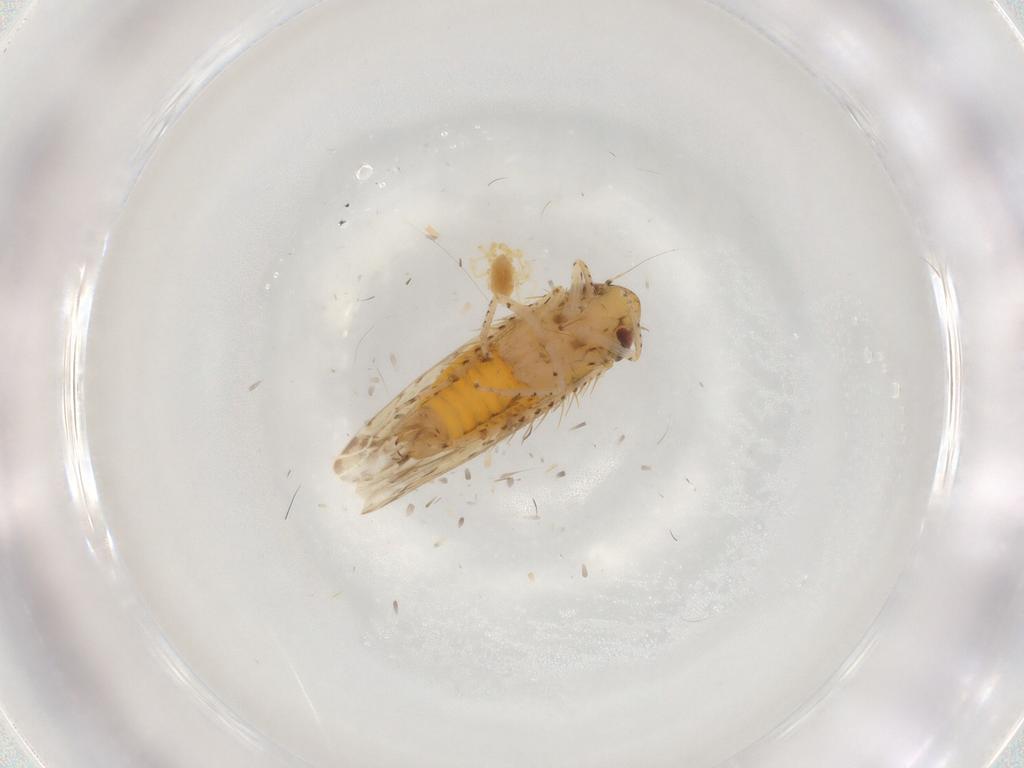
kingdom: Animalia
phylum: Arthropoda
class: Insecta
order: Hemiptera
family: Cicadellidae
